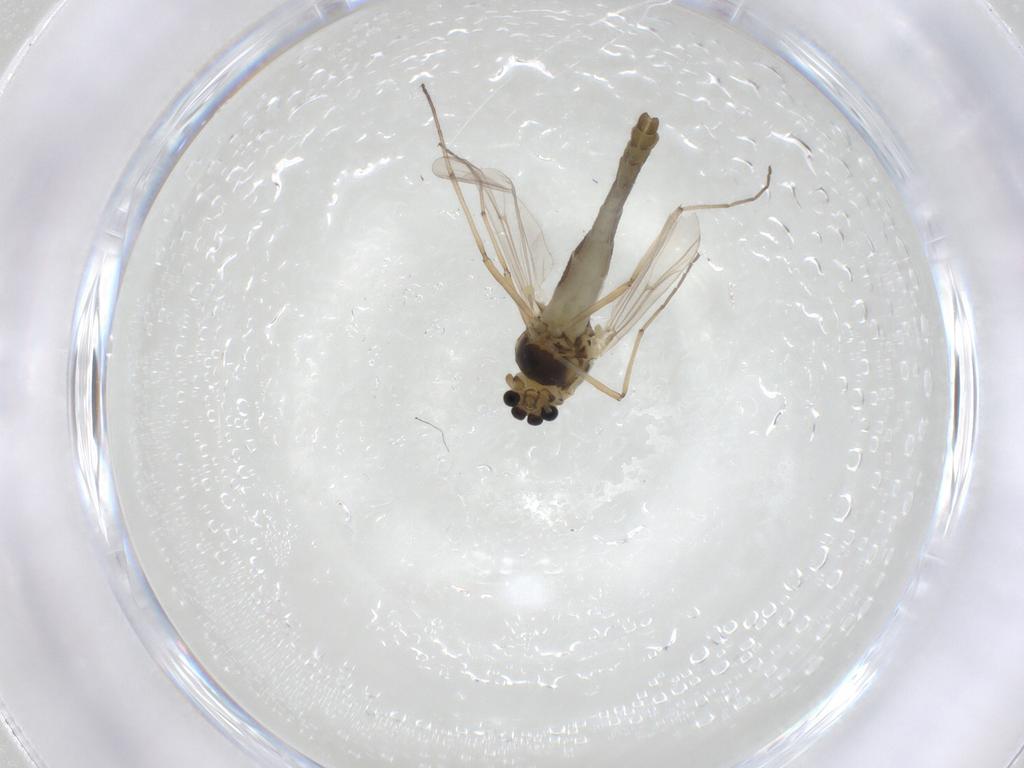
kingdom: Animalia
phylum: Arthropoda
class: Insecta
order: Diptera
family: Chironomidae
